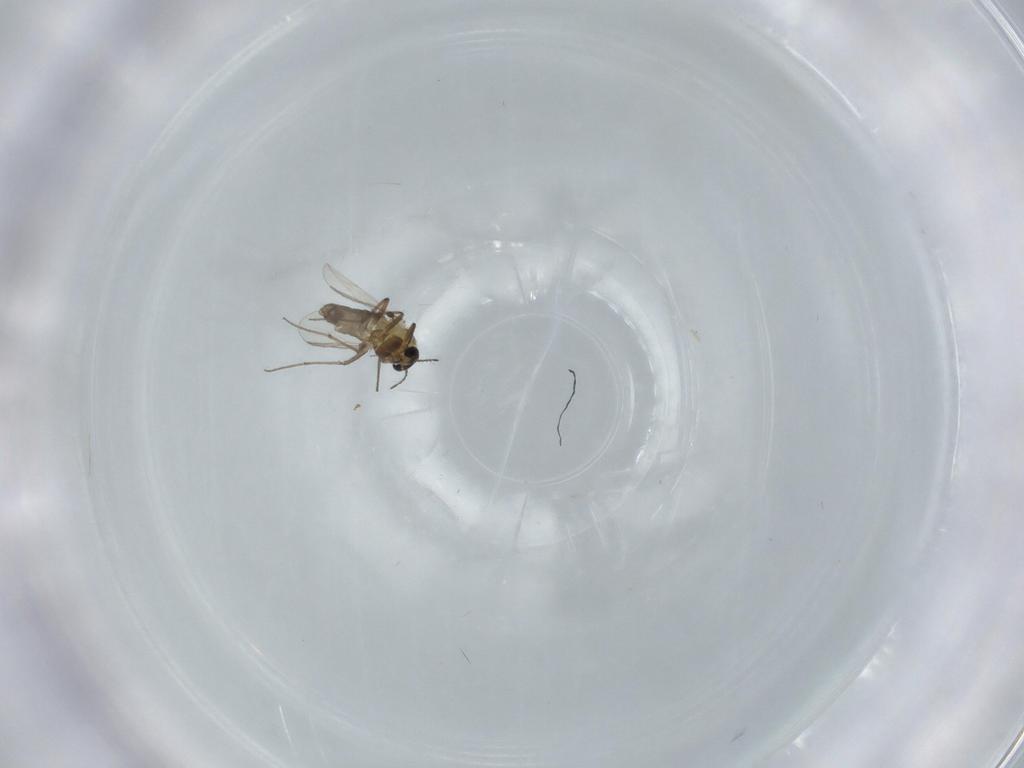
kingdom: Animalia
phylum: Arthropoda
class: Insecta
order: Diptera
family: Chironomidae
